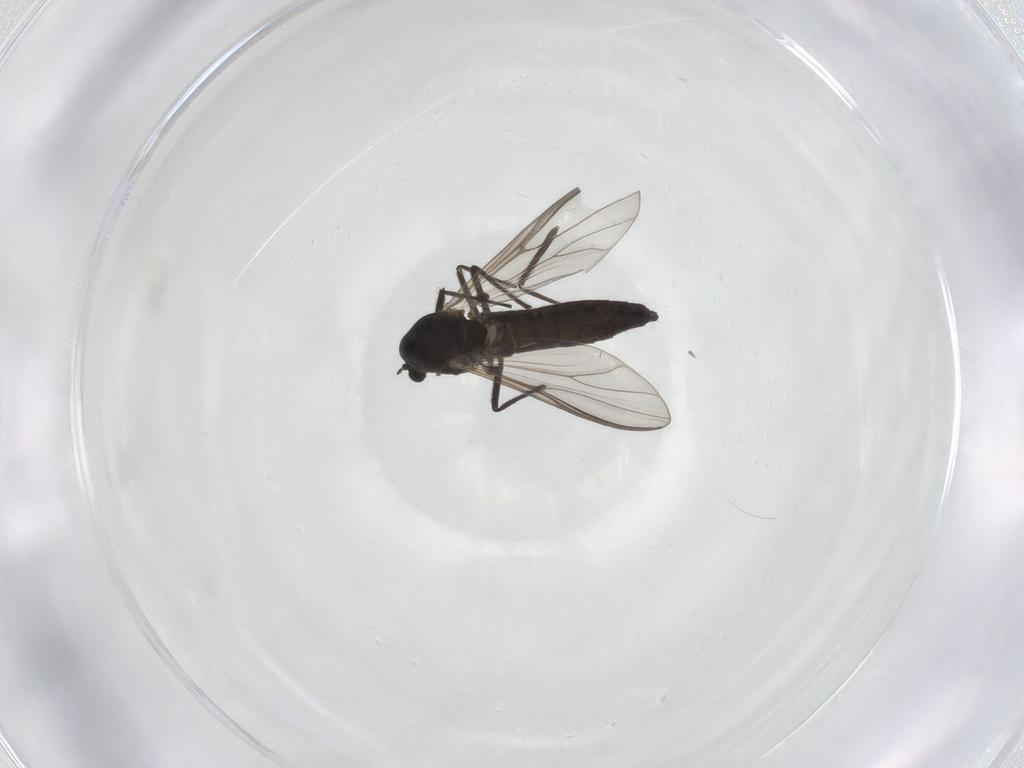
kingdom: Animalia
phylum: Arthropoda
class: Insecta
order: Diptera
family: Chironomidae
